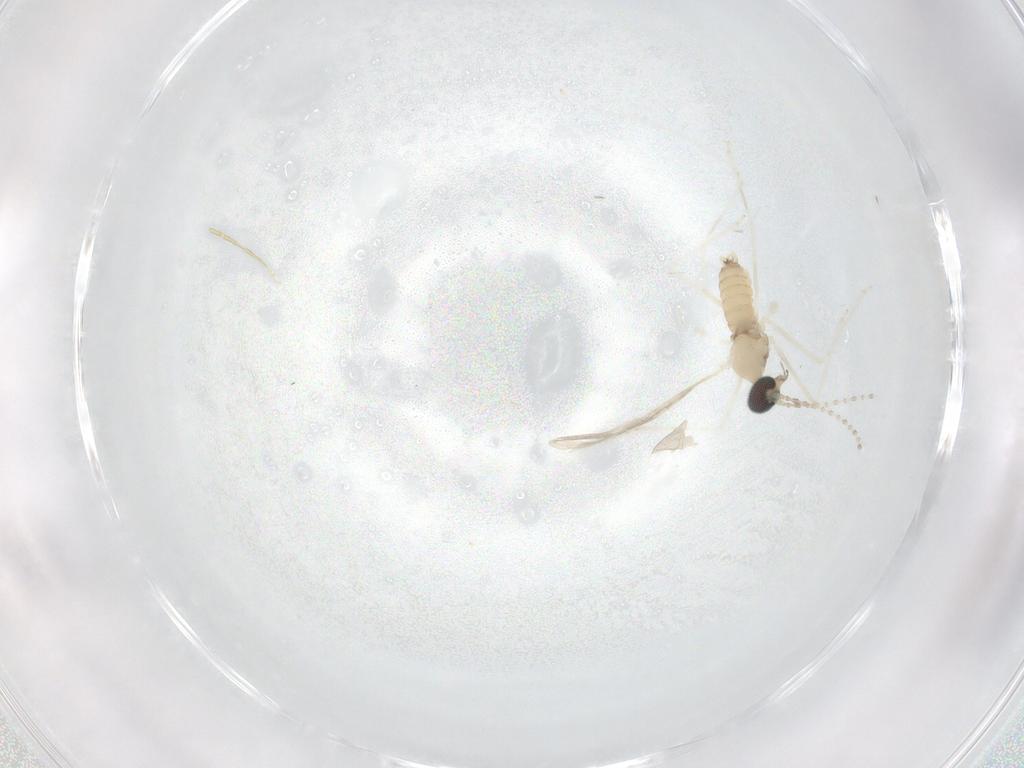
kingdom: Animalia
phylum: Arthropoda
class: Insecta
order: Diptera
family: Cecidomyiidae
